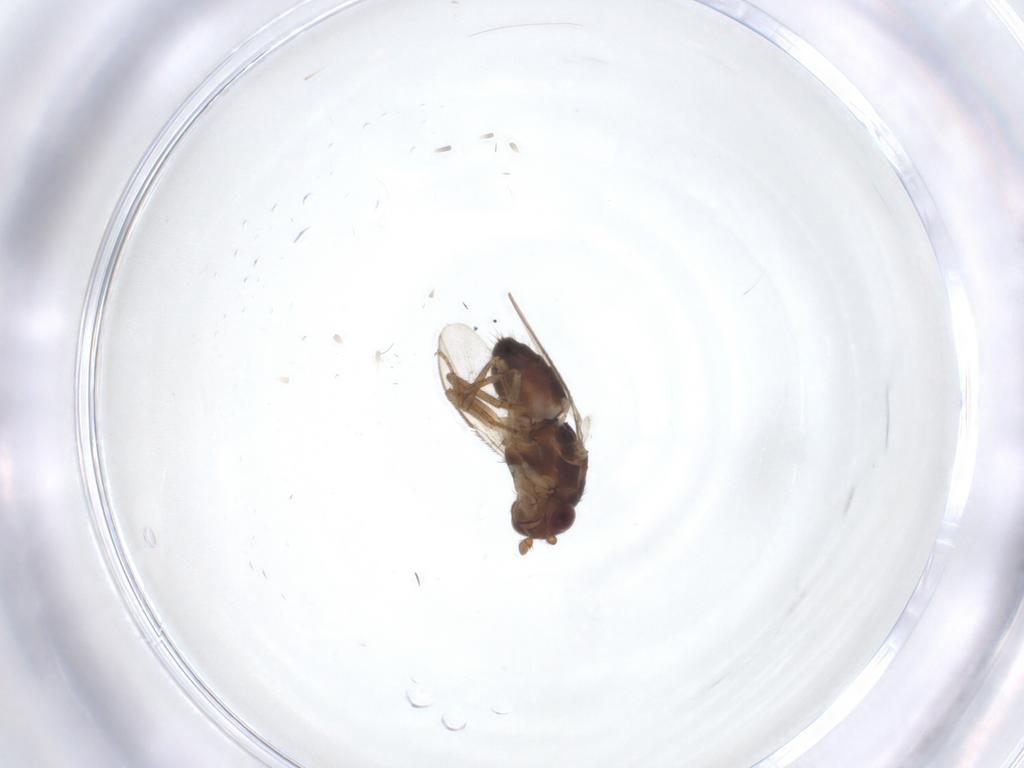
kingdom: Animalia
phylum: Arthropoda
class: Insecta
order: Diptera
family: Sphaeroceridae
